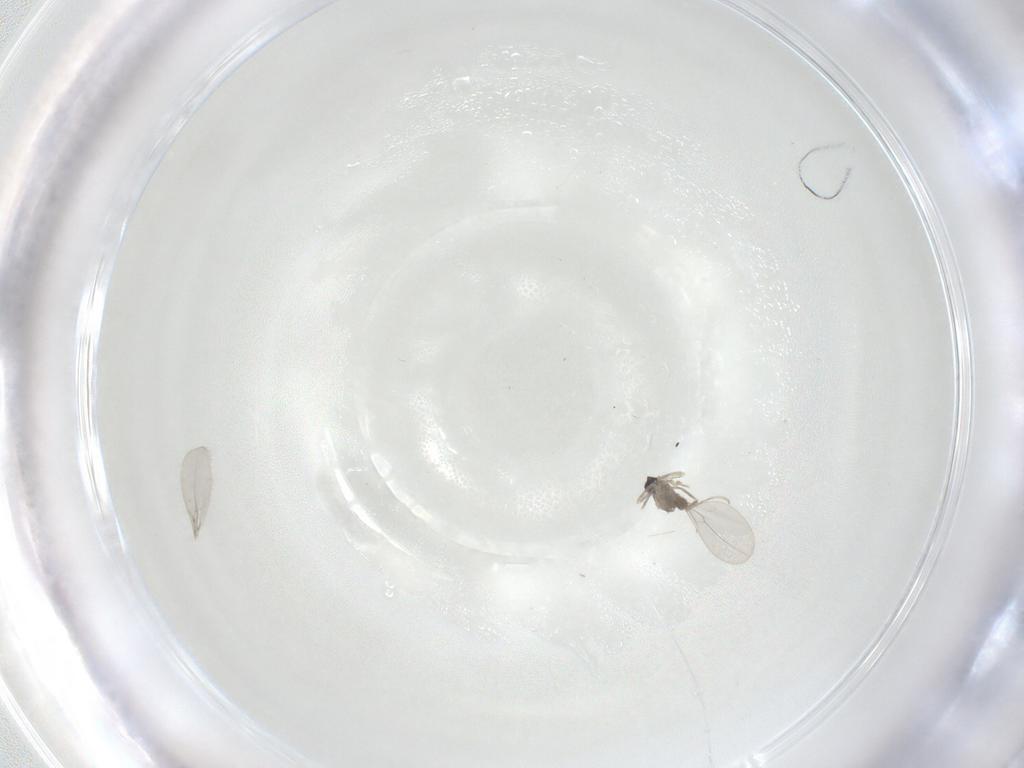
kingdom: Animalia
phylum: Arthropoda
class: Insecta
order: Diptera
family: Cecidomyiidae
